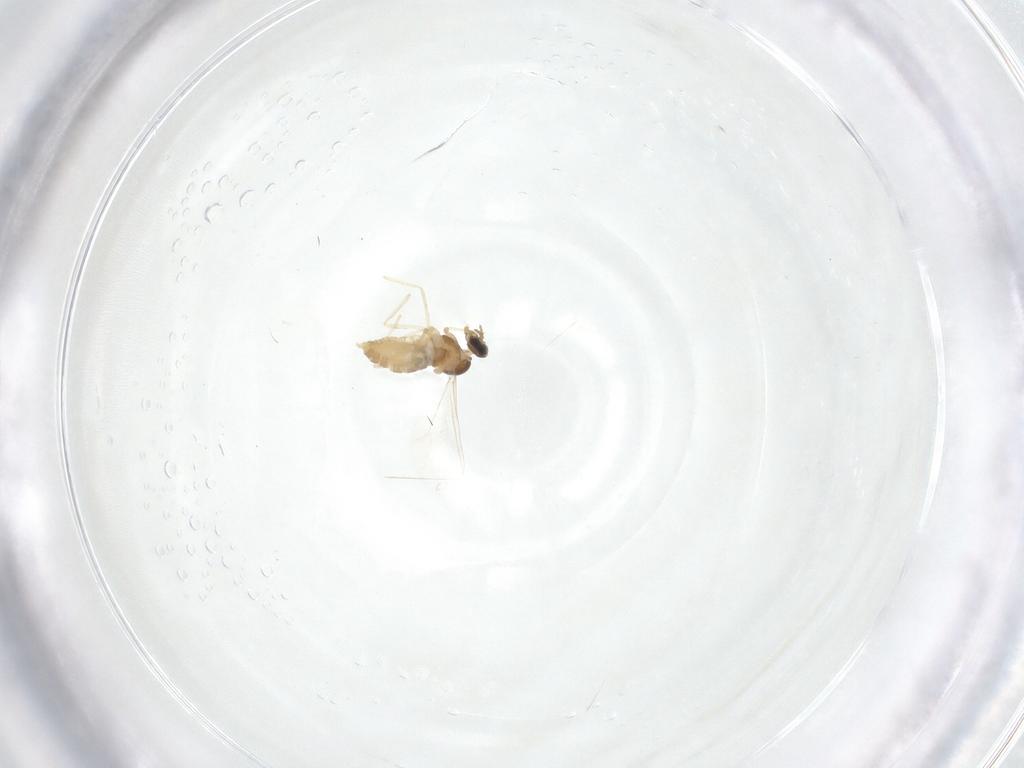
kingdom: Animalia
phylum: Arthropoda
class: Insecta
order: Diptera
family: Cecidomyiidae
